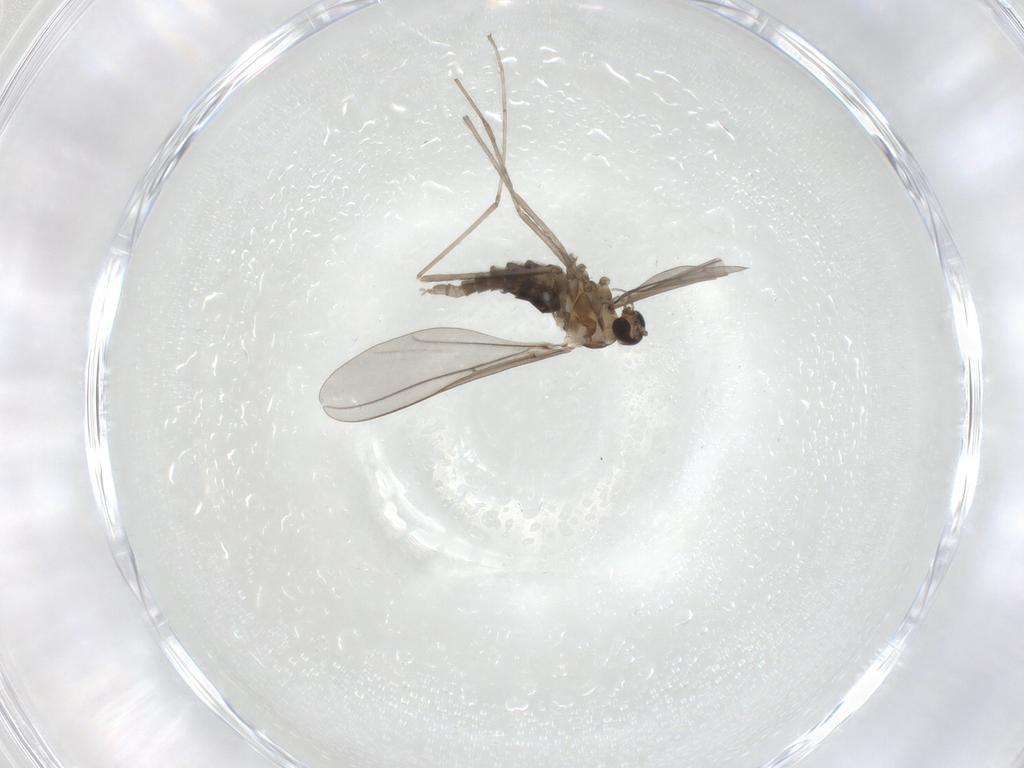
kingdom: Animalia
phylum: Arthropoda
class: Insecta
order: Diptera
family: Cecidomyiidae
